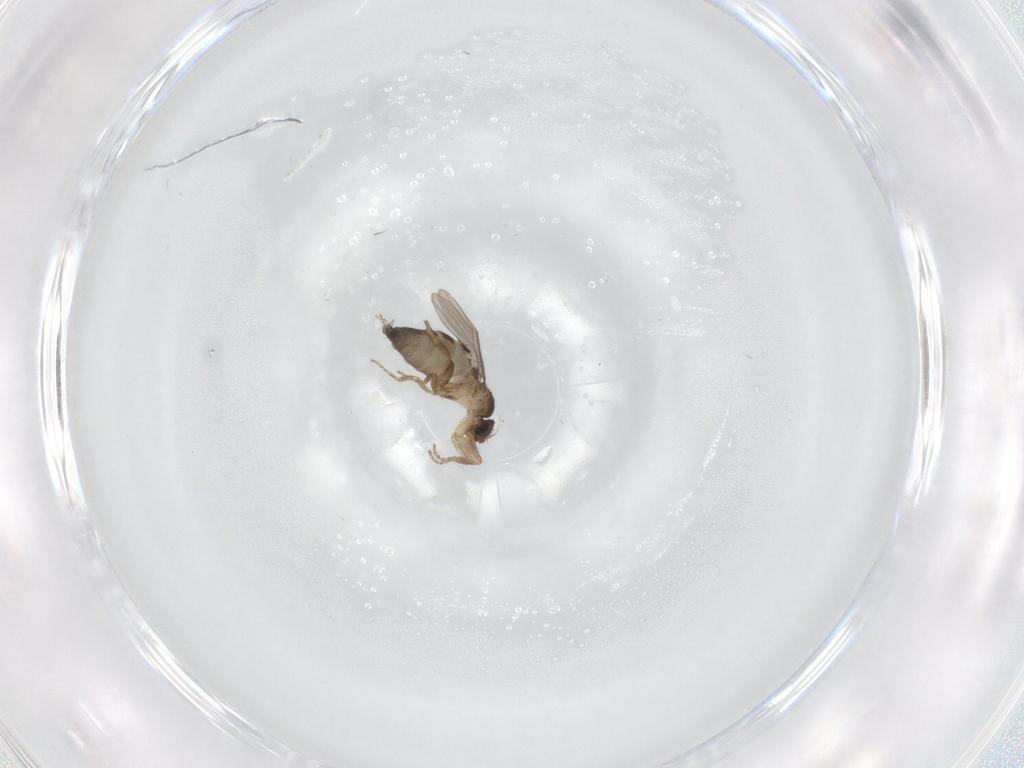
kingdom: Animalia
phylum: Arthropoda
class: Insecta
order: Diptera
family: Phoridae
